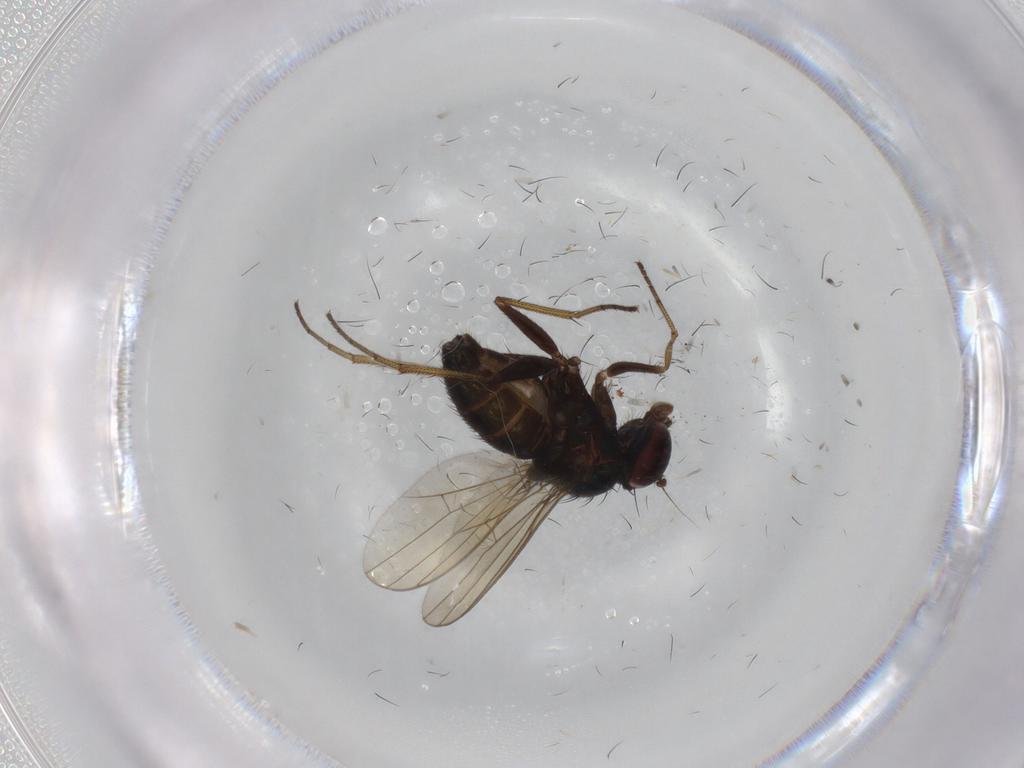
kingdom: Animalia
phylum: Arthropoda
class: Insecta
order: Diptera
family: Dolichopodidae
